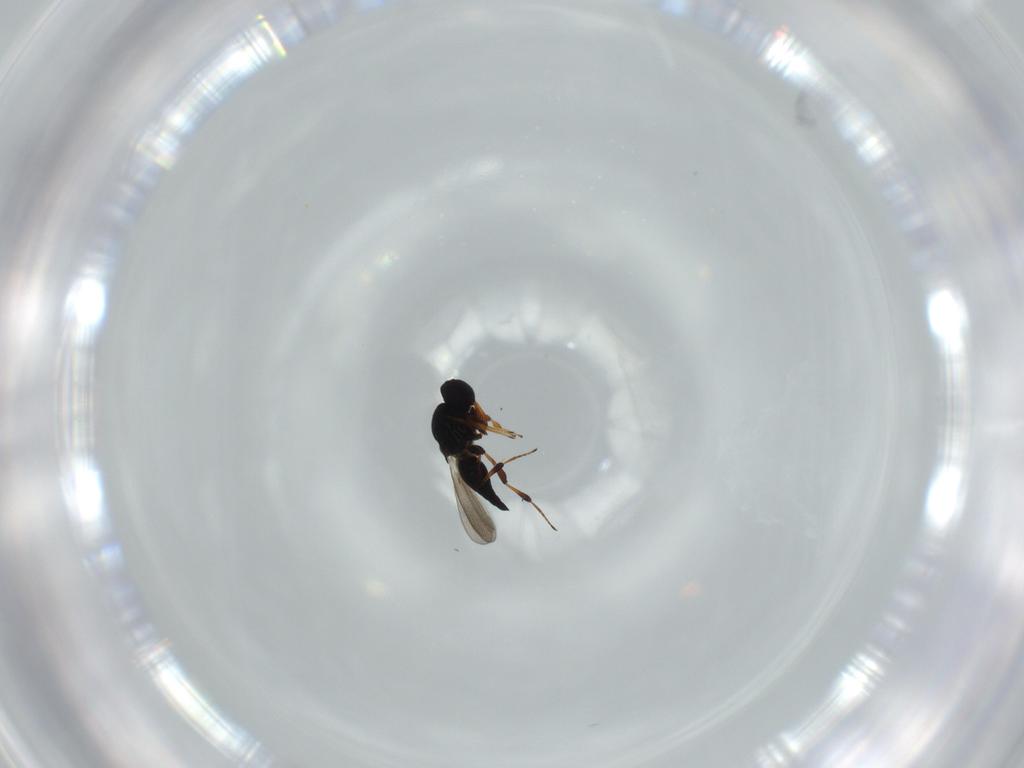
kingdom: Animalia
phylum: Arthropoda
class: Insecta
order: Hymenoptera
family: Platygastridae
